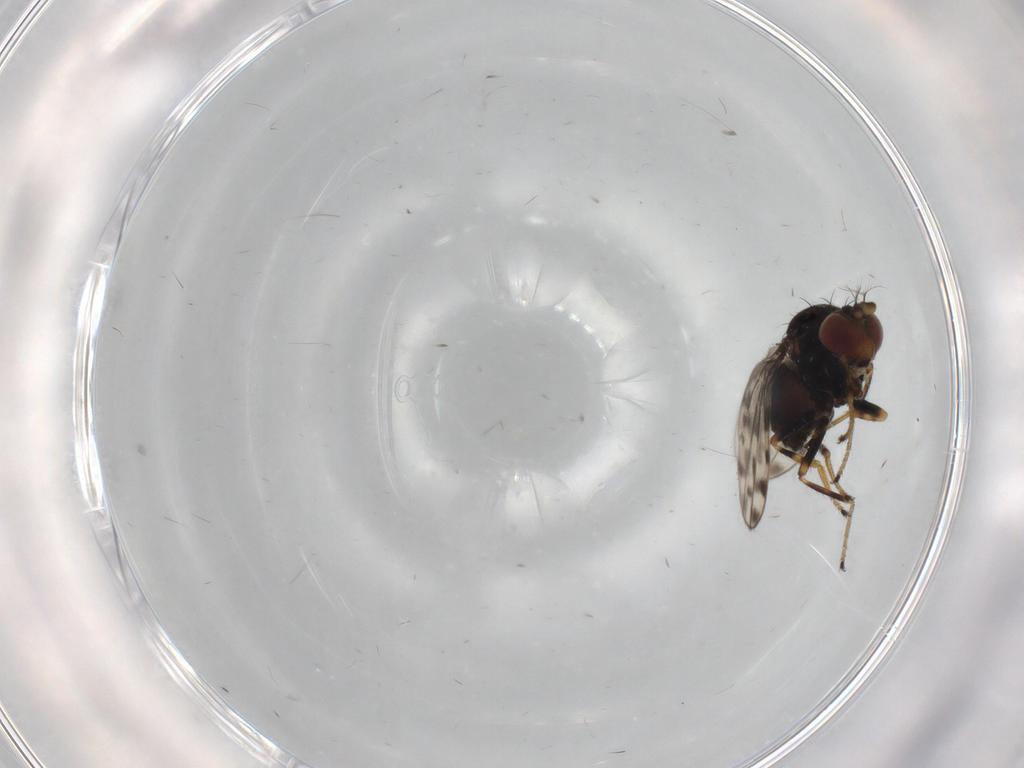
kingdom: Animalia
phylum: Arthropoda
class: Insecta
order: Diptera
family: Ephydridae
